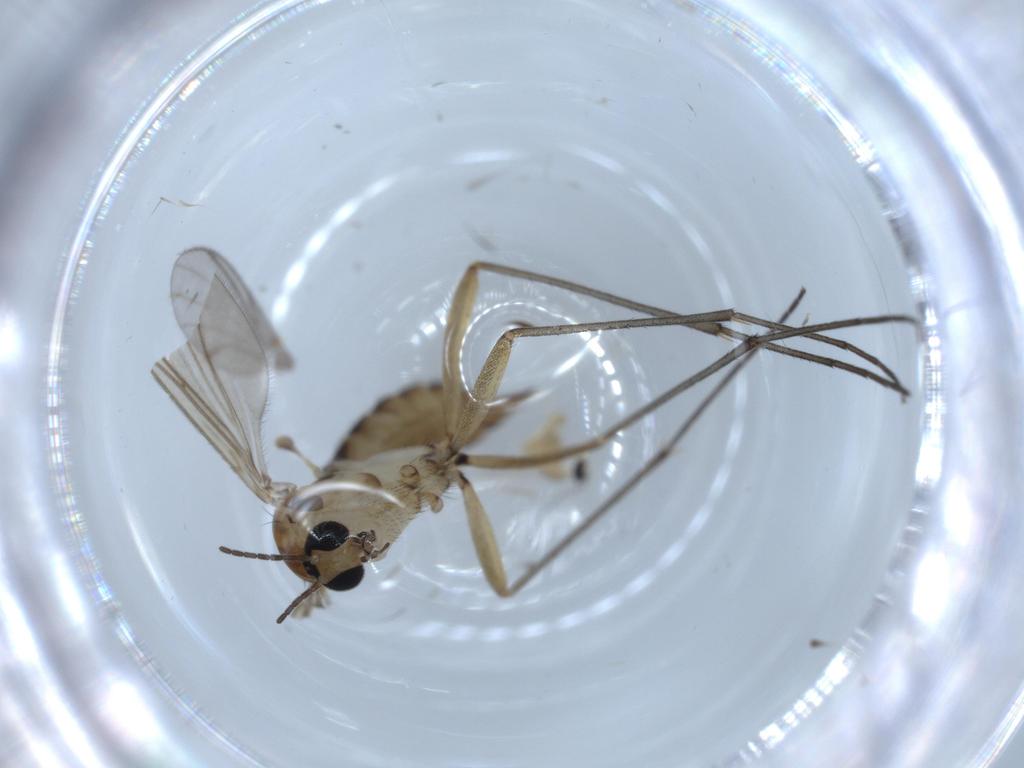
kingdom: Animalia
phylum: Arthropoda
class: Insecta
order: Diptera
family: Cecidomyiidae
